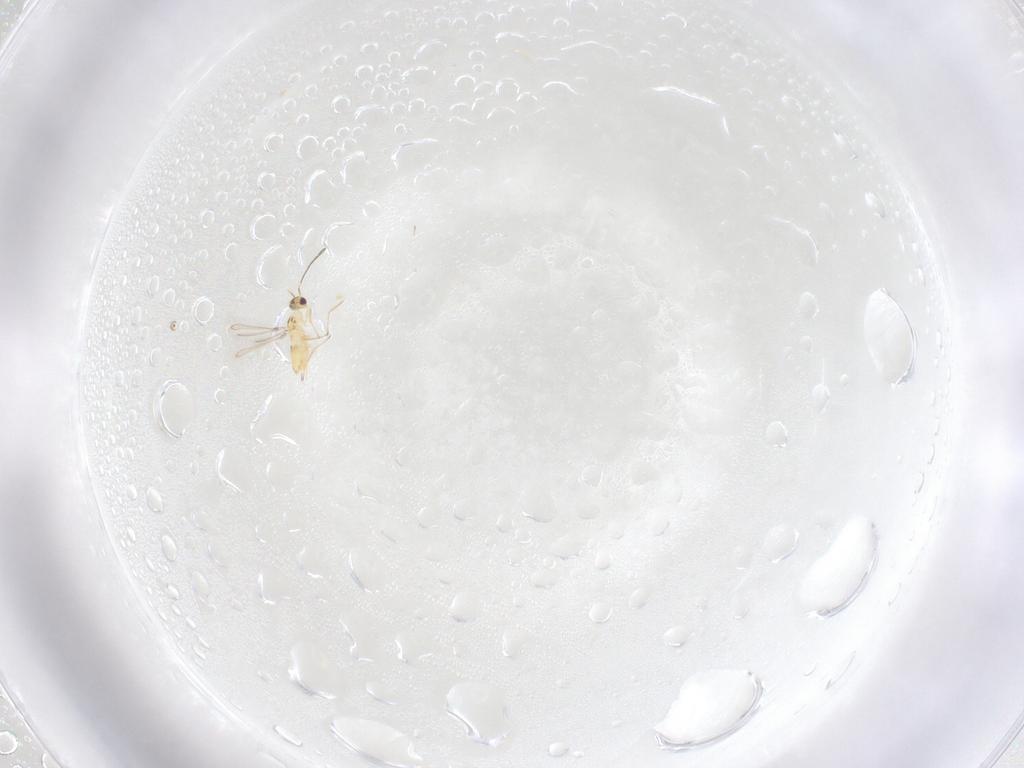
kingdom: Animalia
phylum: Arthropoda
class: Insecta
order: Hymenoptera
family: Mymaridae
